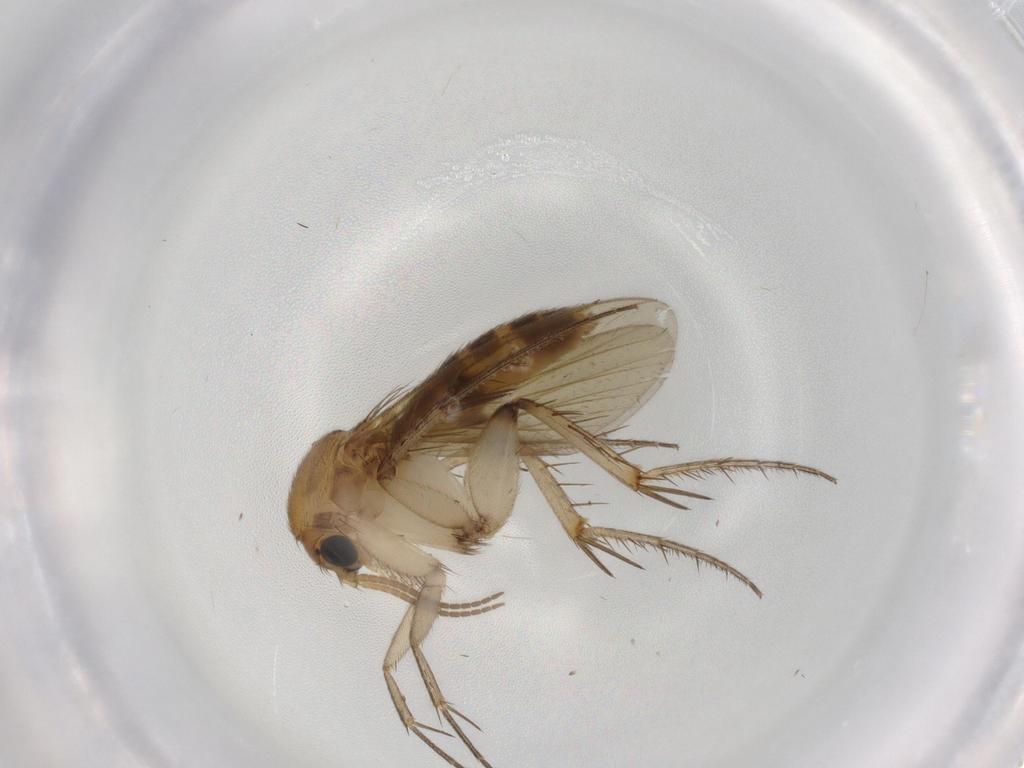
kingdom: Animalia
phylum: Arthropoda
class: Insecta
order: Diptera
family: Mycetophilidae
